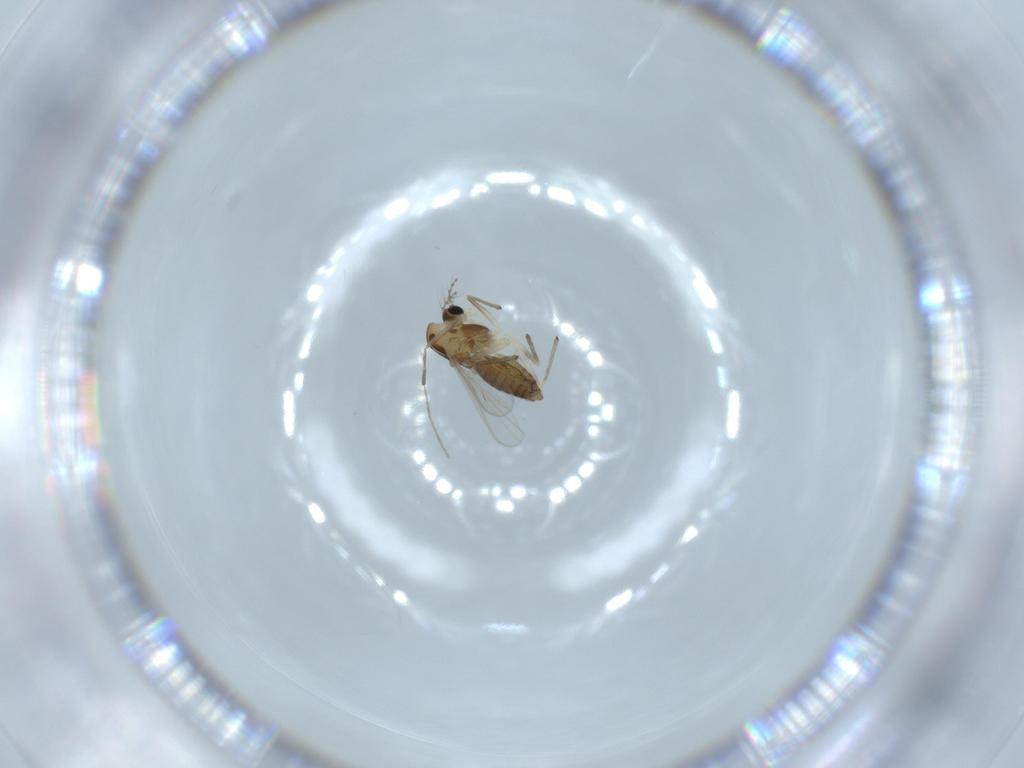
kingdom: Animalia
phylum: Arthropoda
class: Insecta
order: Diptera
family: Chironomidae
